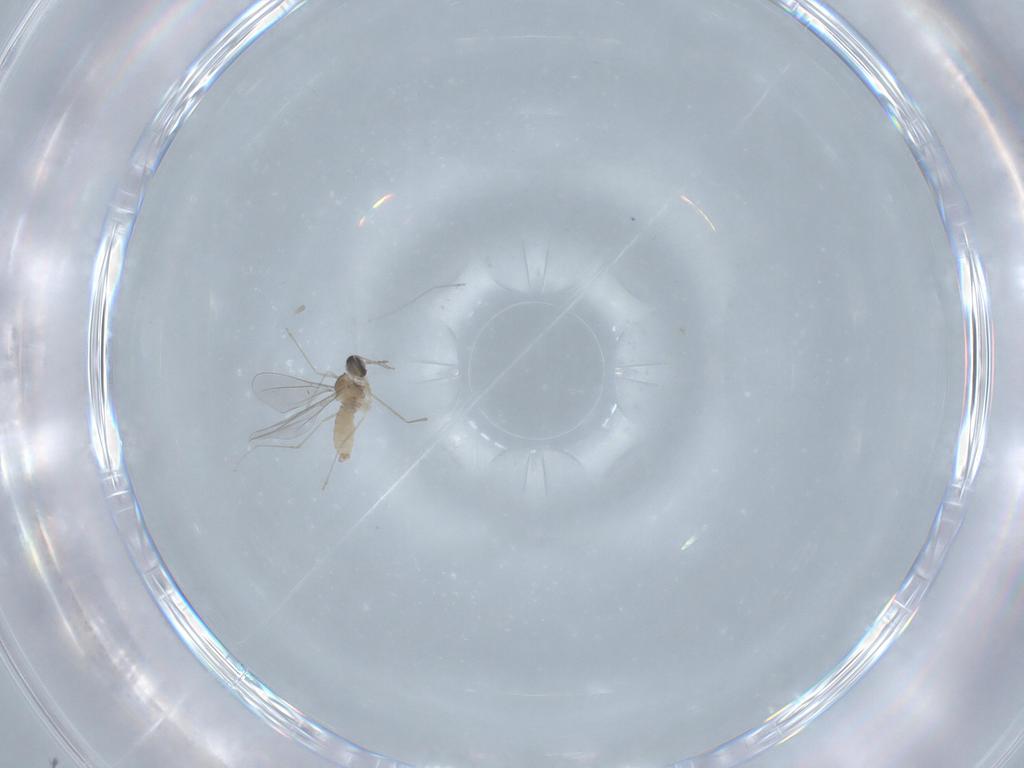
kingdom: Animalia
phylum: Arthropoda
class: Insecta
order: Diptera
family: Cecidomyiidae
